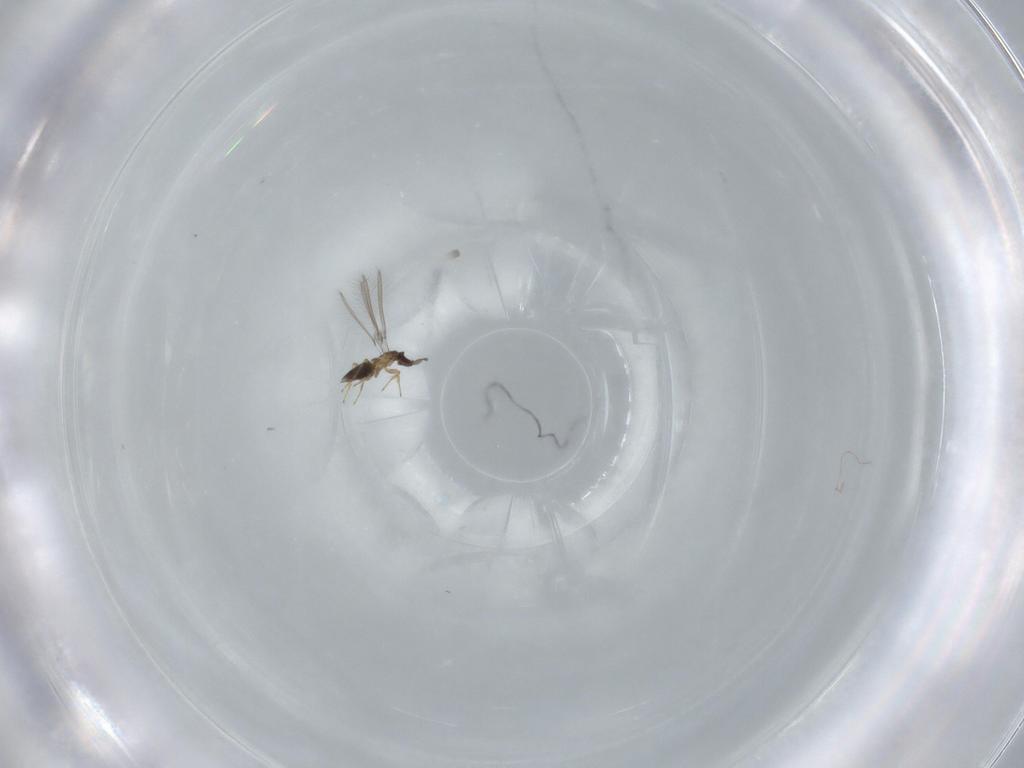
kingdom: Animalia
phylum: Arthropoda
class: Insecta
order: Hymenoptera
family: Mymaridae
